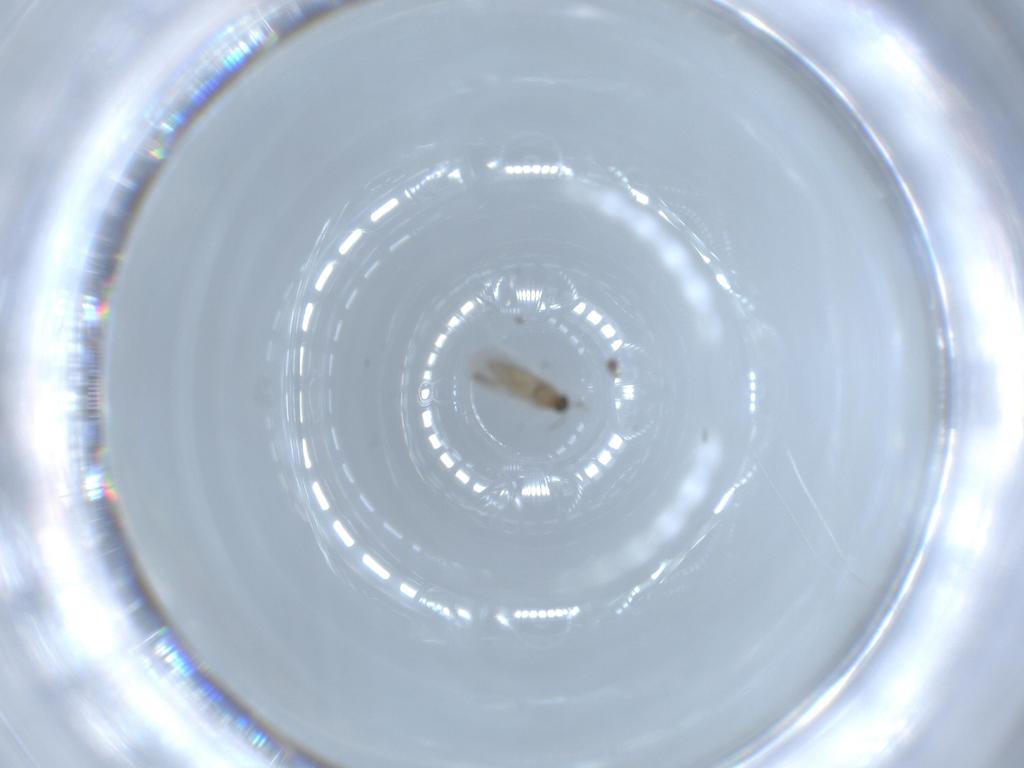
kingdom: Animalia
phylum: Arthropoda
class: Insecta
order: Diptera
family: Cecidomyiidae
